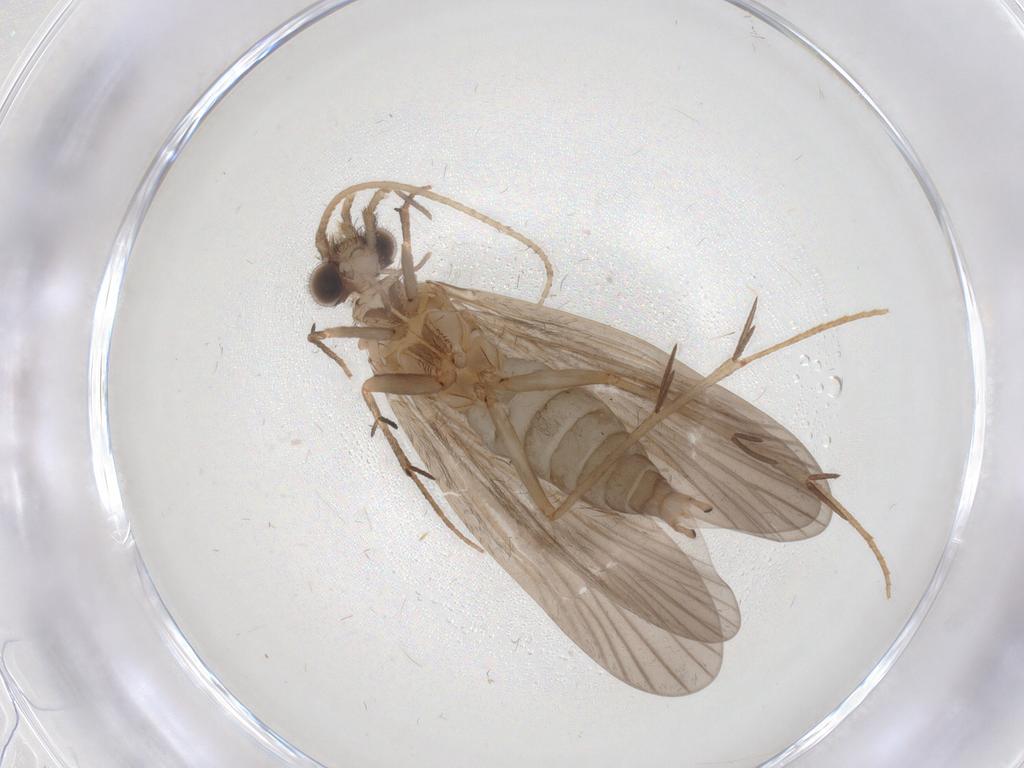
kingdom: Animalia
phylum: Arthropoda
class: Insecta
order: Trichoptera
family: Philopotamidae
